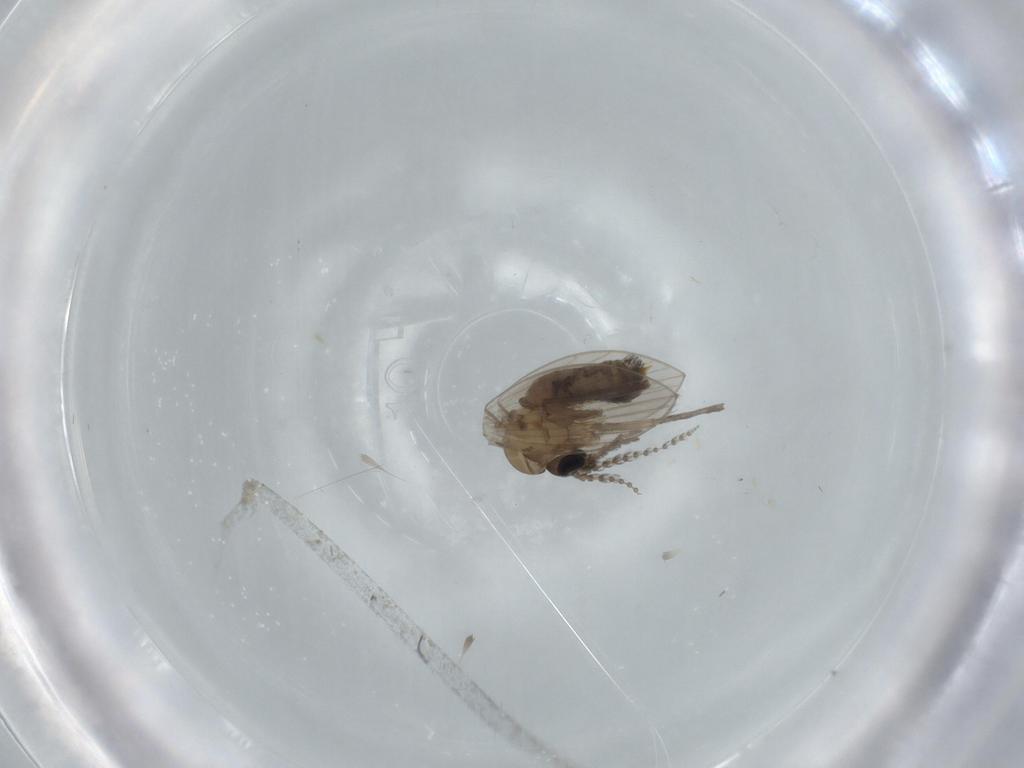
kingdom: Animalia
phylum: Arthropoda
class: Insecta
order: Diptera
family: Psychodidae
